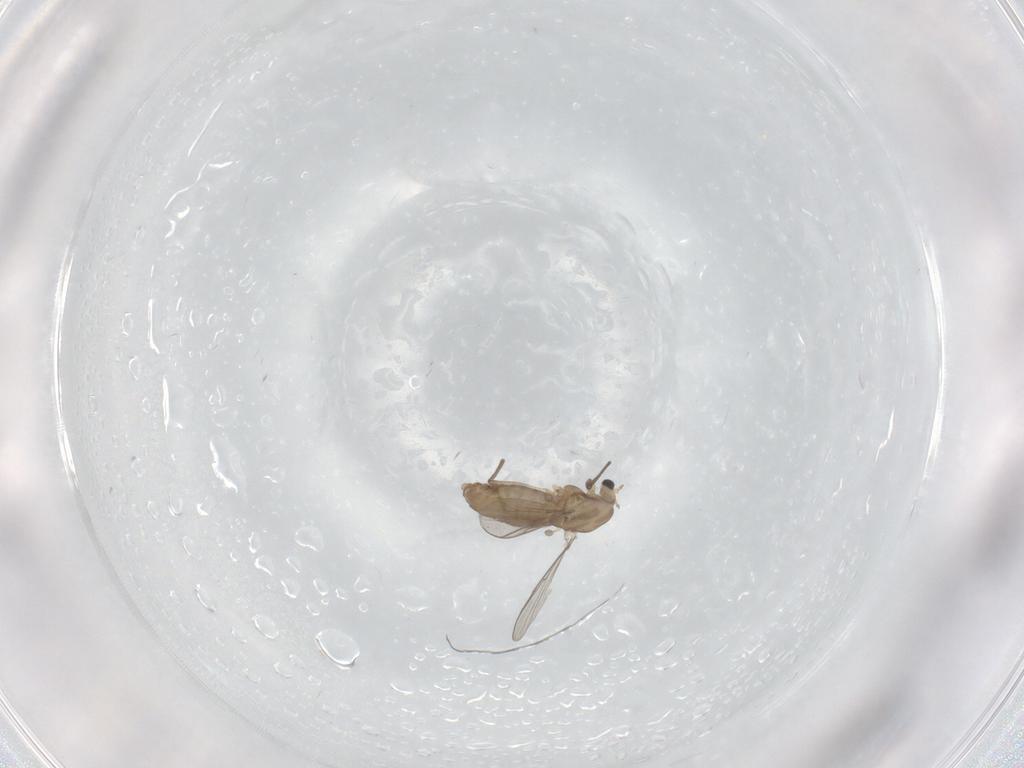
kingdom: Animalia
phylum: Arthropoda
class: Insecta
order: Diptera
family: Chironomidae
